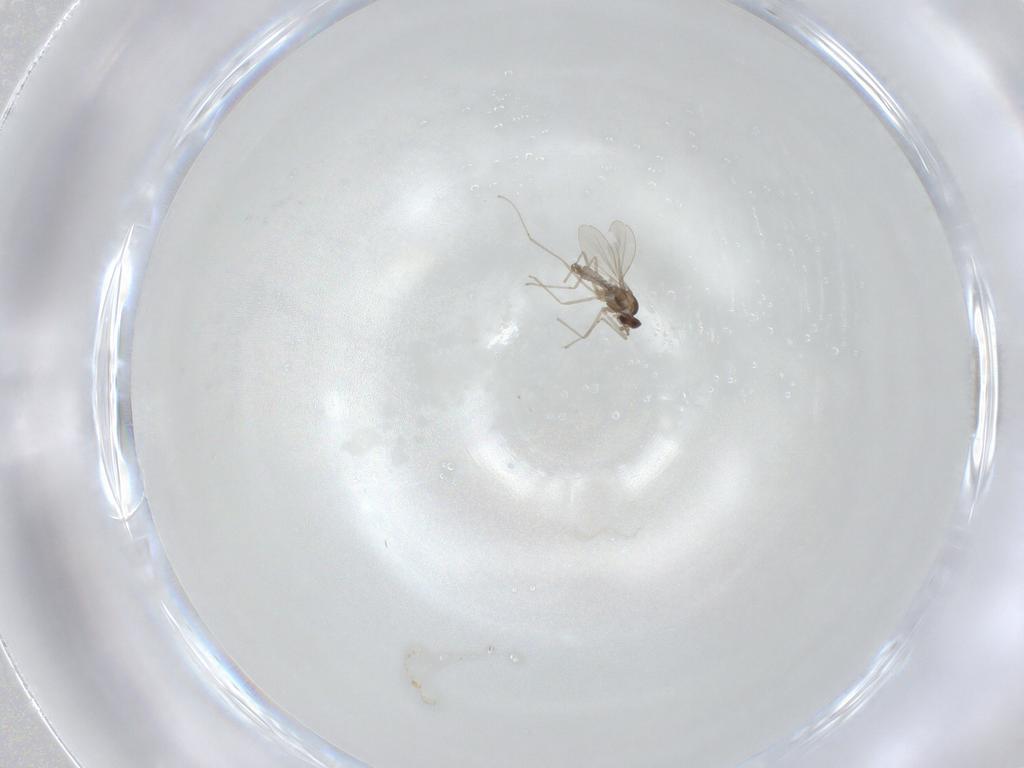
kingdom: Animalia
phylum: Arthropoda
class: Insecta
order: Diptera
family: Cecidomyiidae
